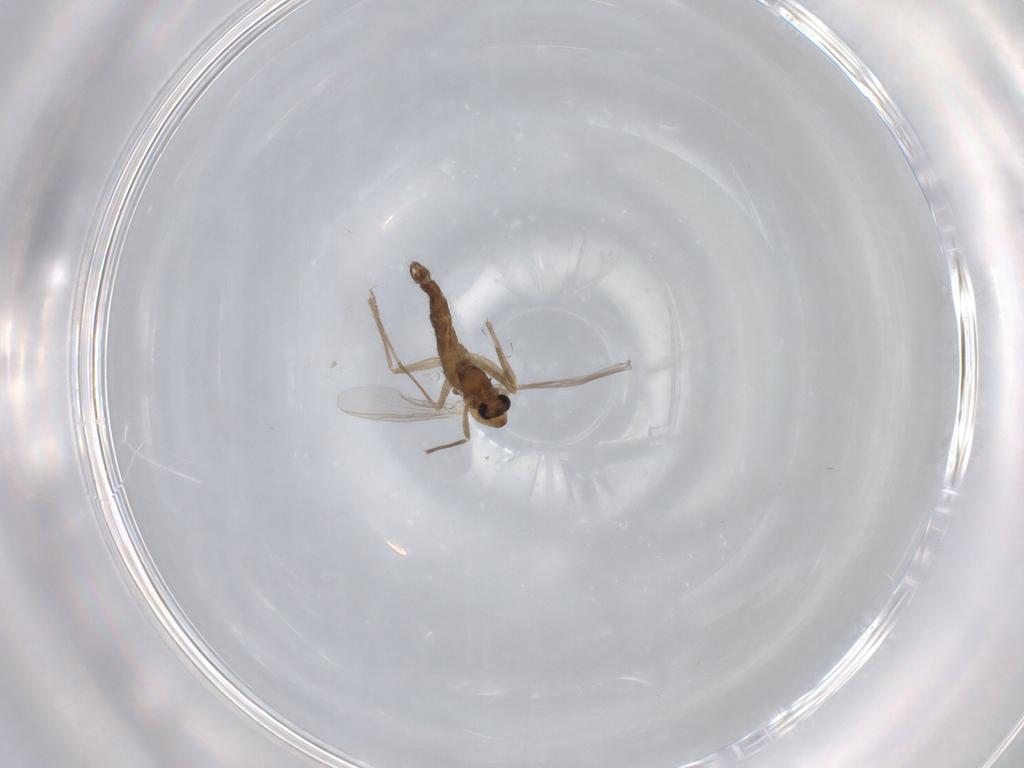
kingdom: Animalia
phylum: Arthropoda
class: Insecta
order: Diptera
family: Chironomidae
